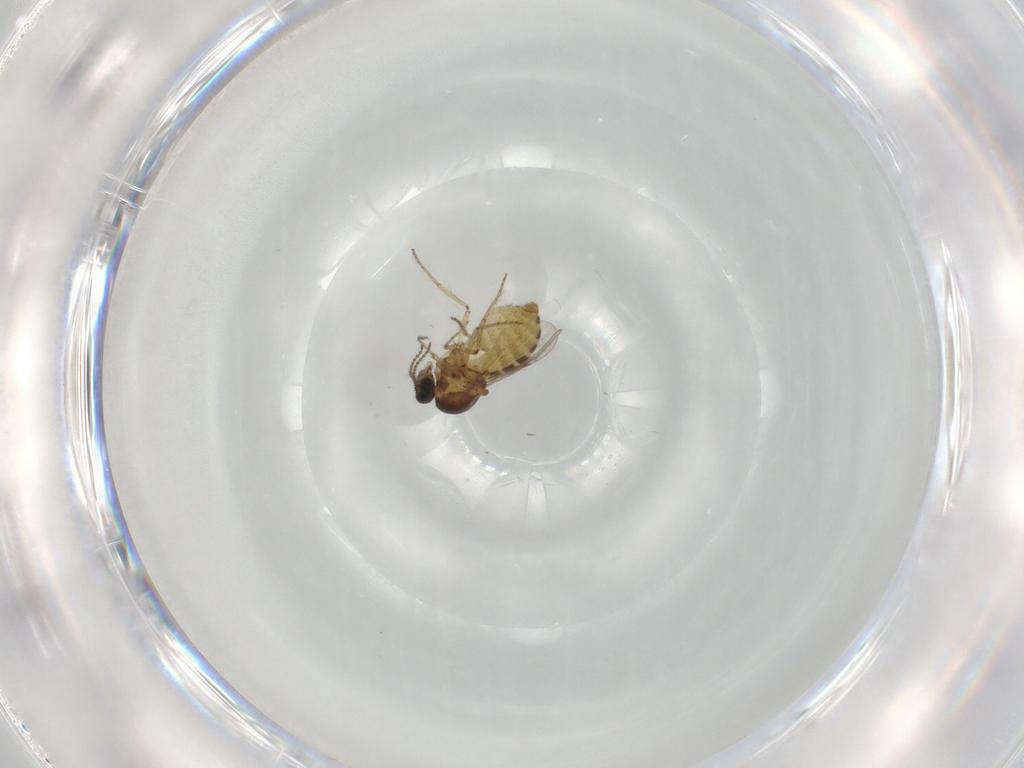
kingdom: Animalia
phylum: Arthropoda
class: Insecta
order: Diptera
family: Ceratopogonidae
